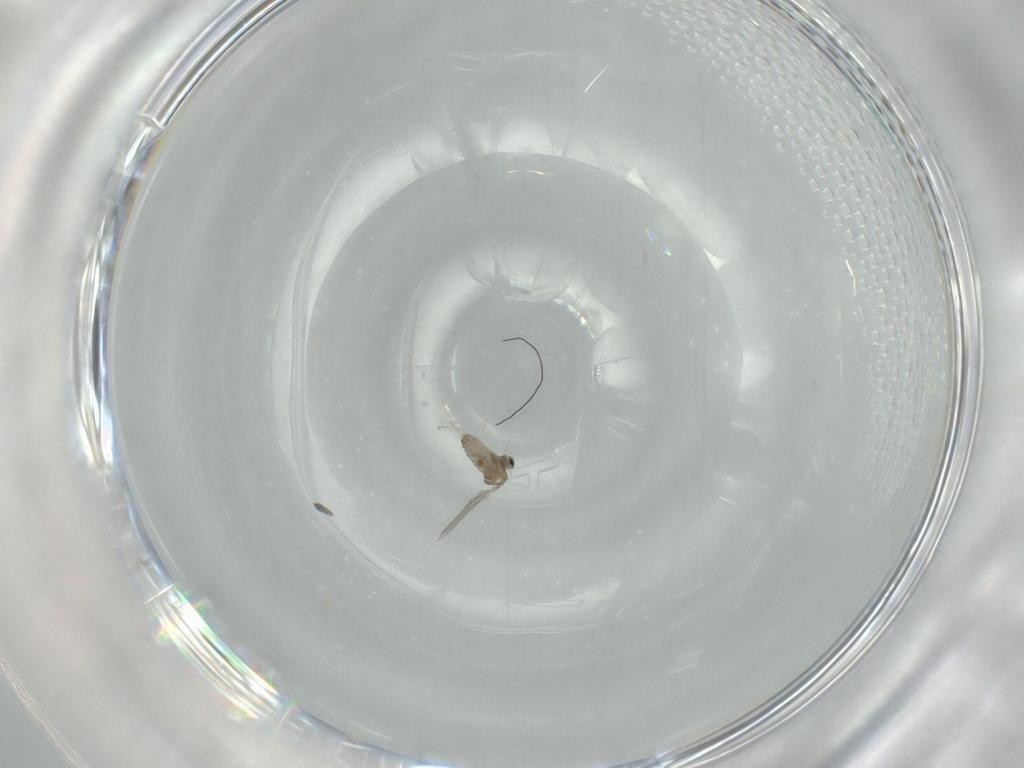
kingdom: Animalia
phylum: Arthropoda
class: Insecta
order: Diptera
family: Cecidomyiidae
